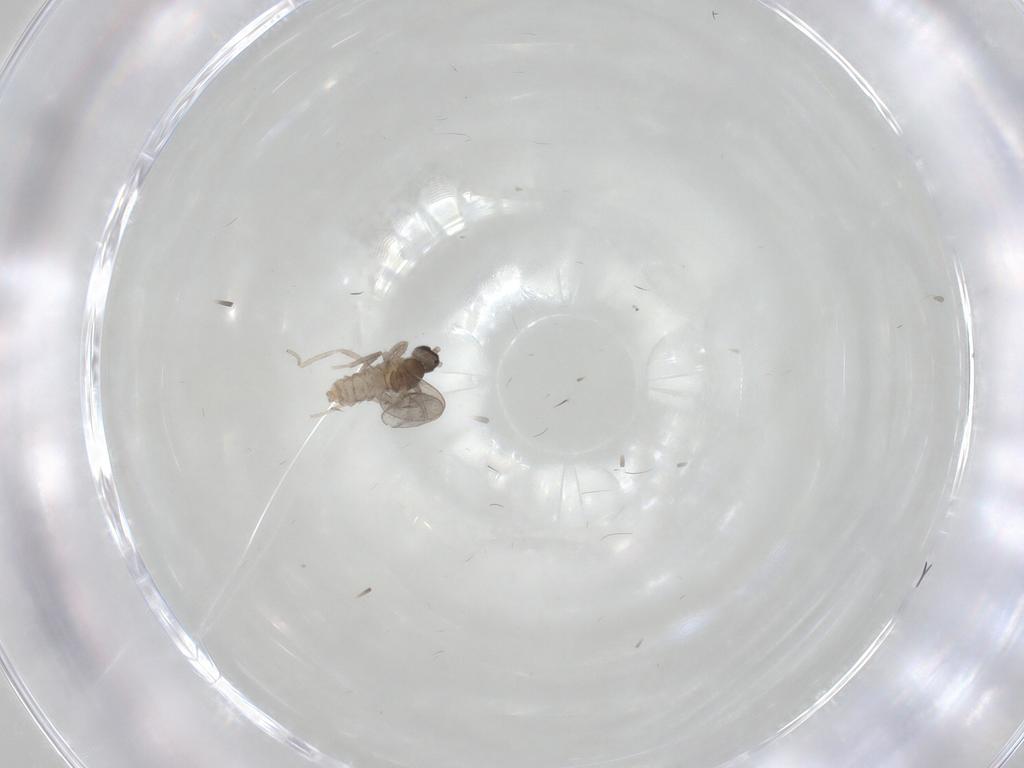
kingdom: Animalia
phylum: Arthropoda
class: Insecta
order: Diptera
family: Cecidomyiidae
